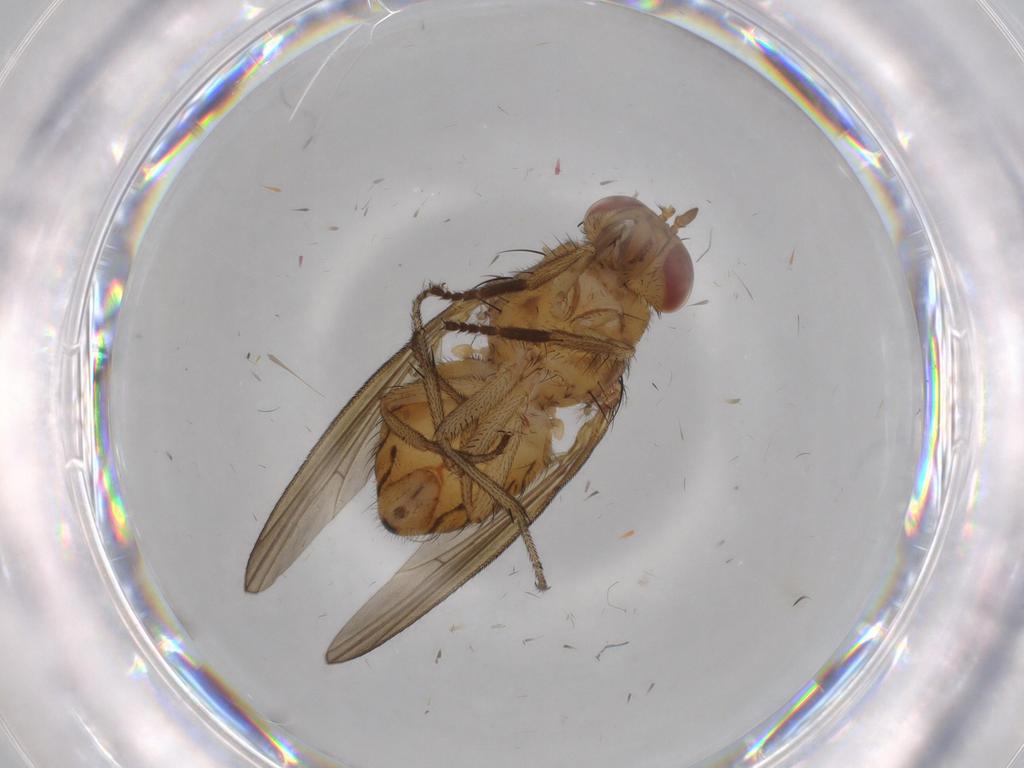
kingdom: Animalia
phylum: Arthropoda
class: Insecta
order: Diptera
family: Chironomidae
